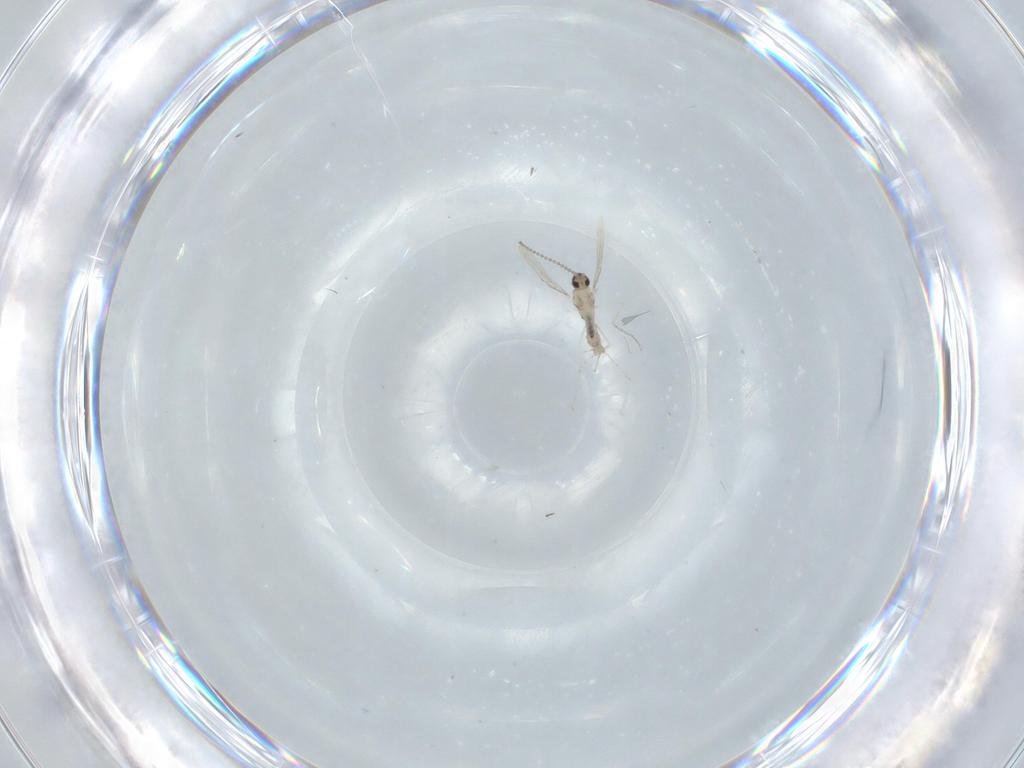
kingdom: Animalia
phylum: Arthropoda
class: Insecta
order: Diptera
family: Cecidomyiidae
